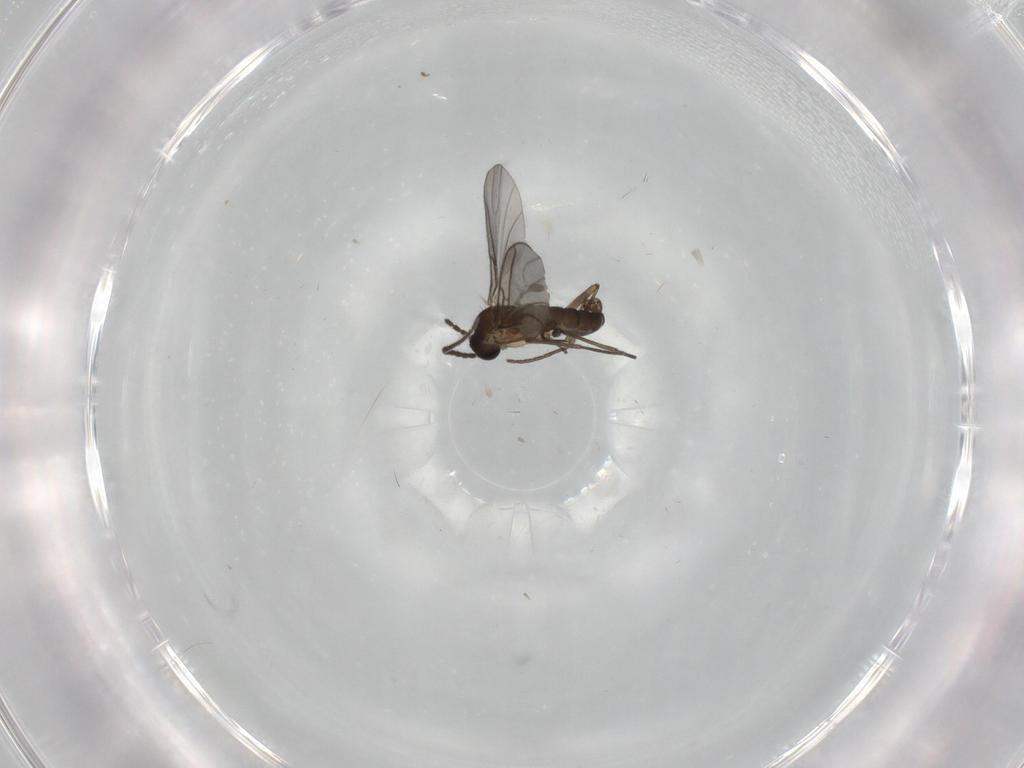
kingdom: Animalia
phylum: Arthropoda
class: Insecta
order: Diptera
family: Sciaridae
